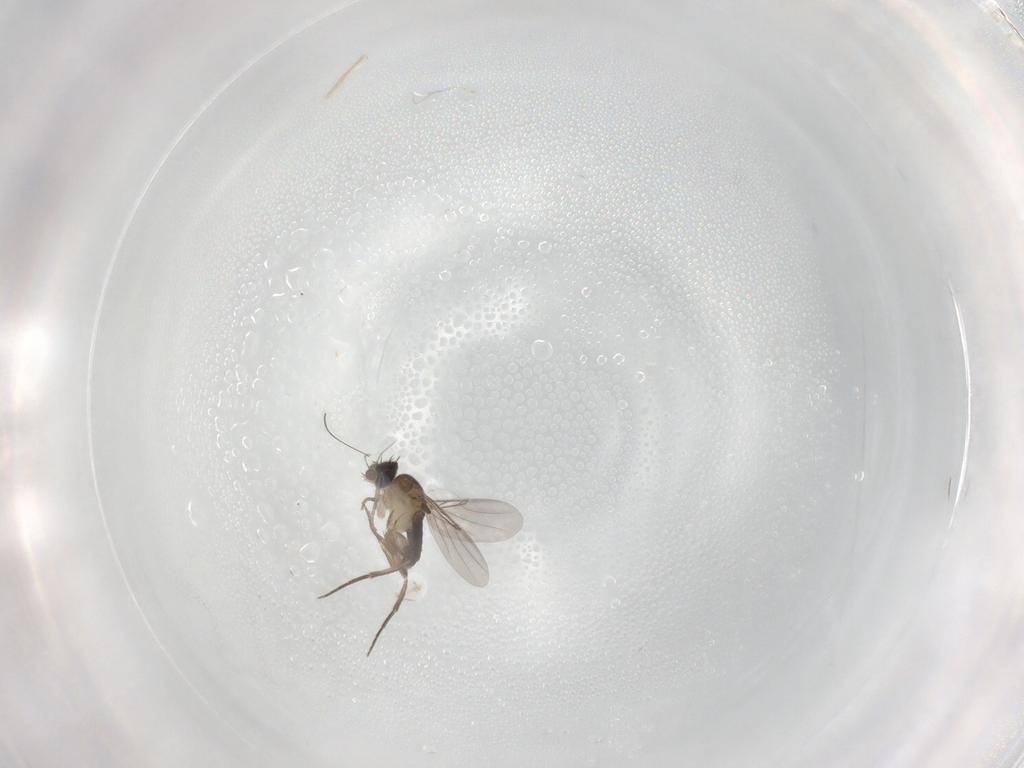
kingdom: Animalia
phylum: Arthropoda
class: Insecta
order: Diptera
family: Phoridae
